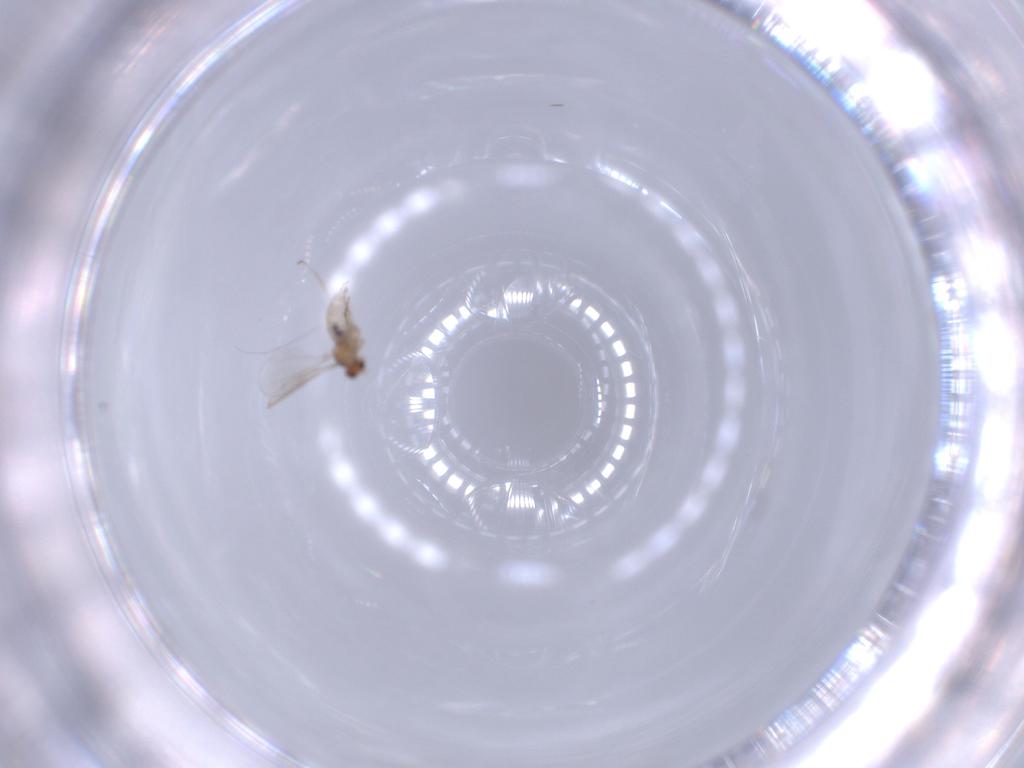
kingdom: Animalia
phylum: Arthropoda
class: Insecta
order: Diptera
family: Cecidomyiidae
